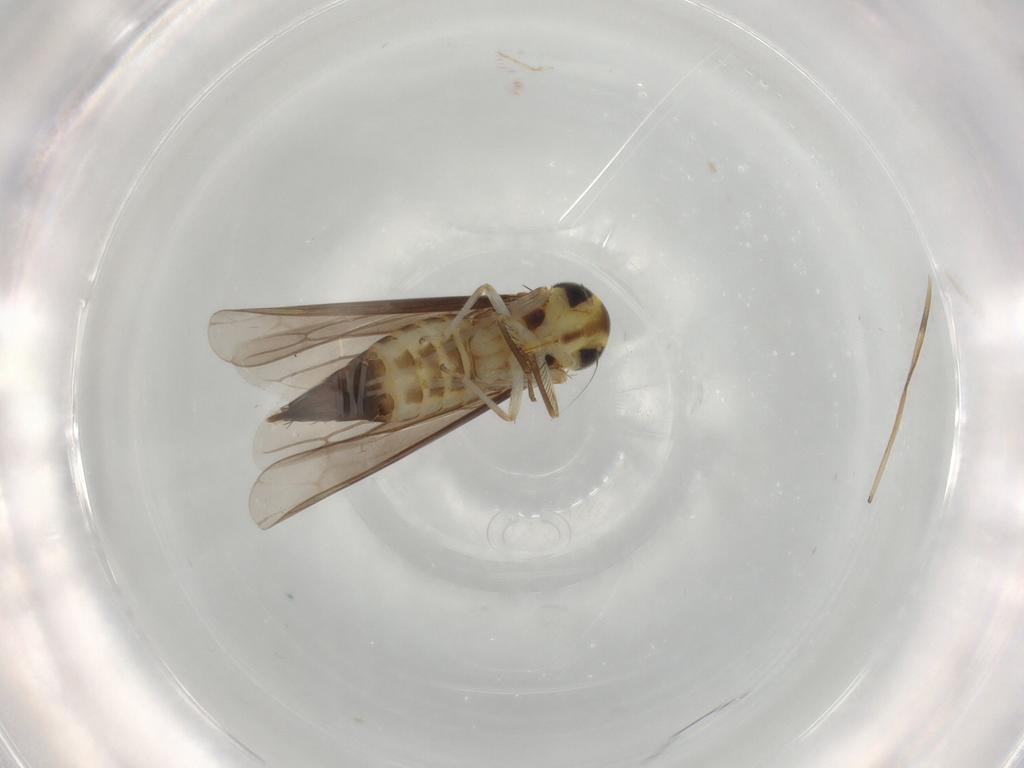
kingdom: Animalia
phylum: Arthropoda
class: Insecta
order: Hemiptera
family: Cicadellidae
